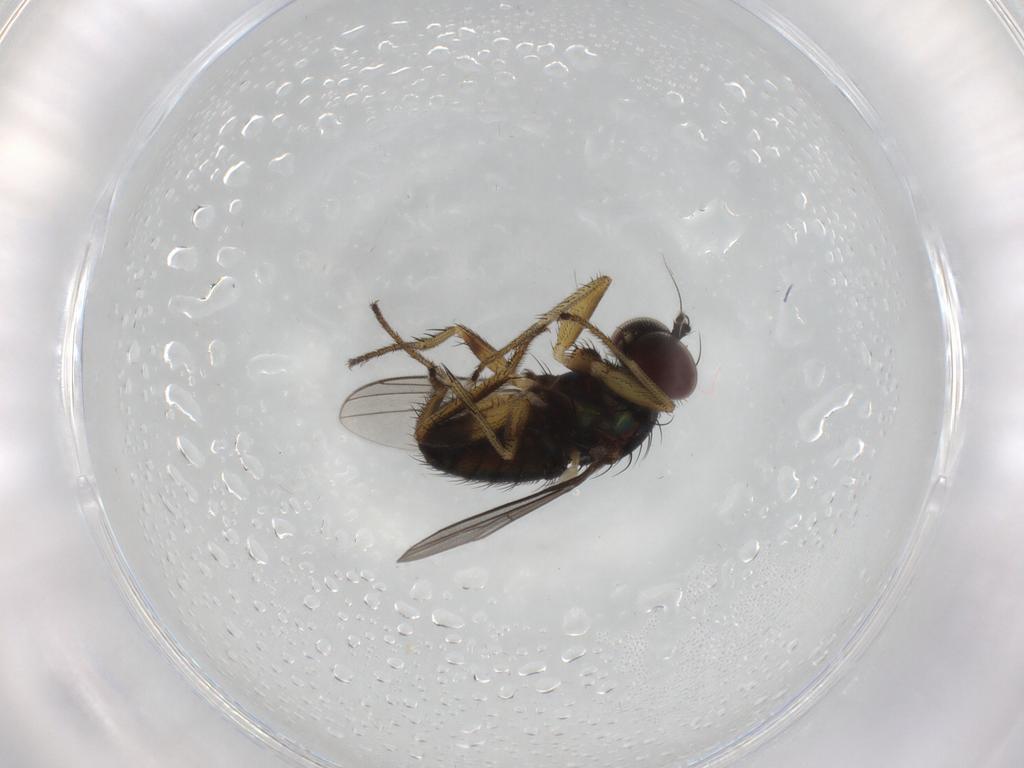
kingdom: Animalia
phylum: Arthropoda
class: Insecta
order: Diptera
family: Dolichopodidae
